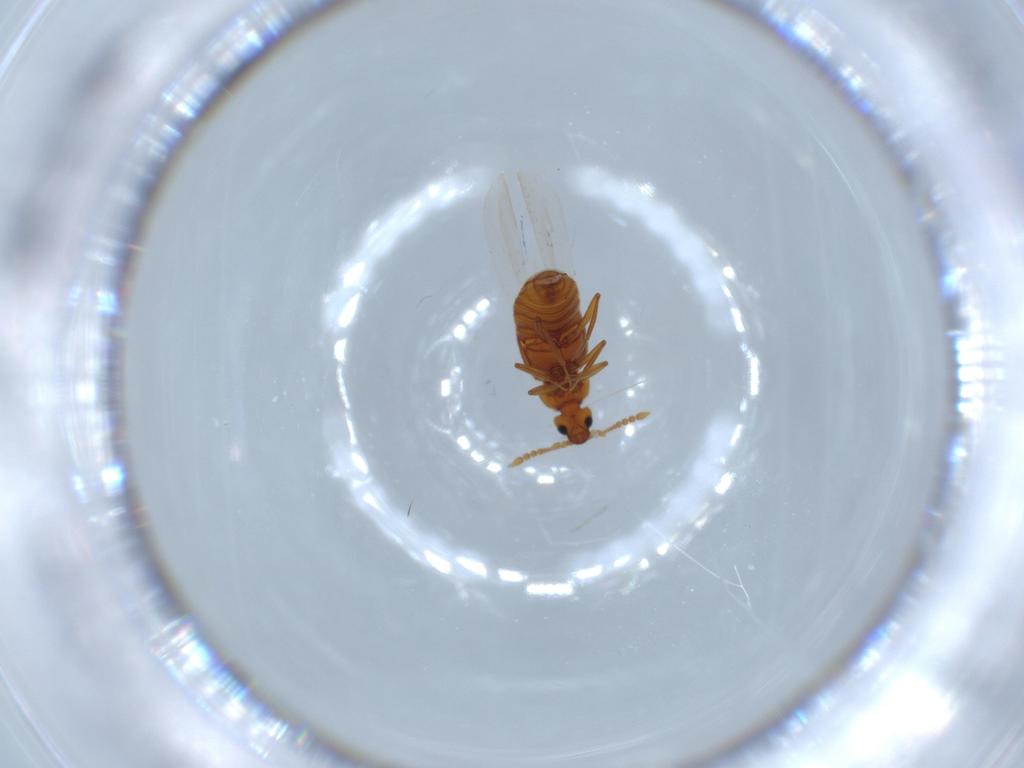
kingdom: Animalia
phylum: Arthropoda
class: Insecta
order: Coleoptera
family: Staphylinidae
